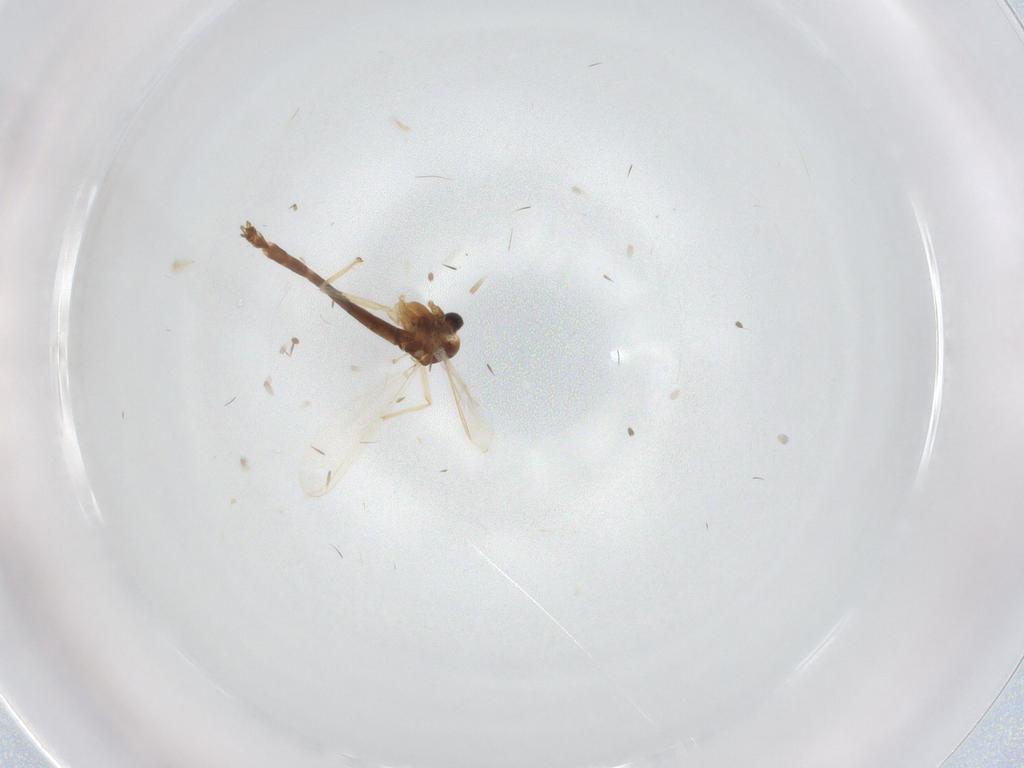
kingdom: Animalia
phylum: Arthropoda
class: Insecta
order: Diptera
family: Chironomidae
